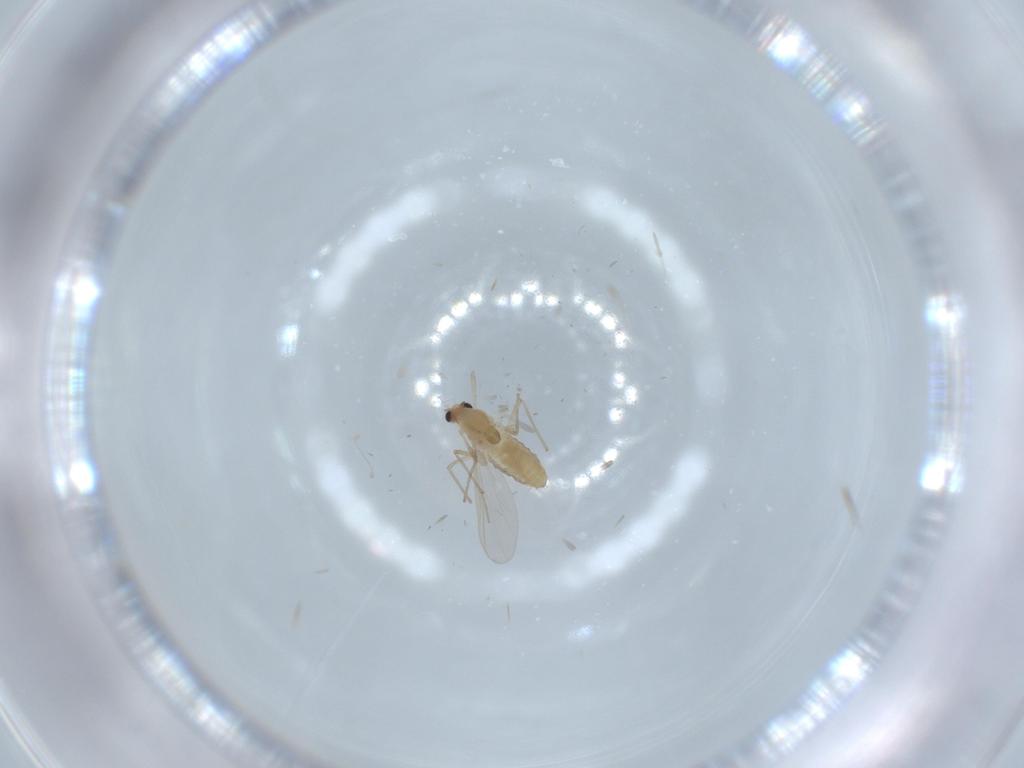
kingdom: Animalia
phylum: Arthropoda
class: Insecta
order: Diptera
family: Chironomidae
